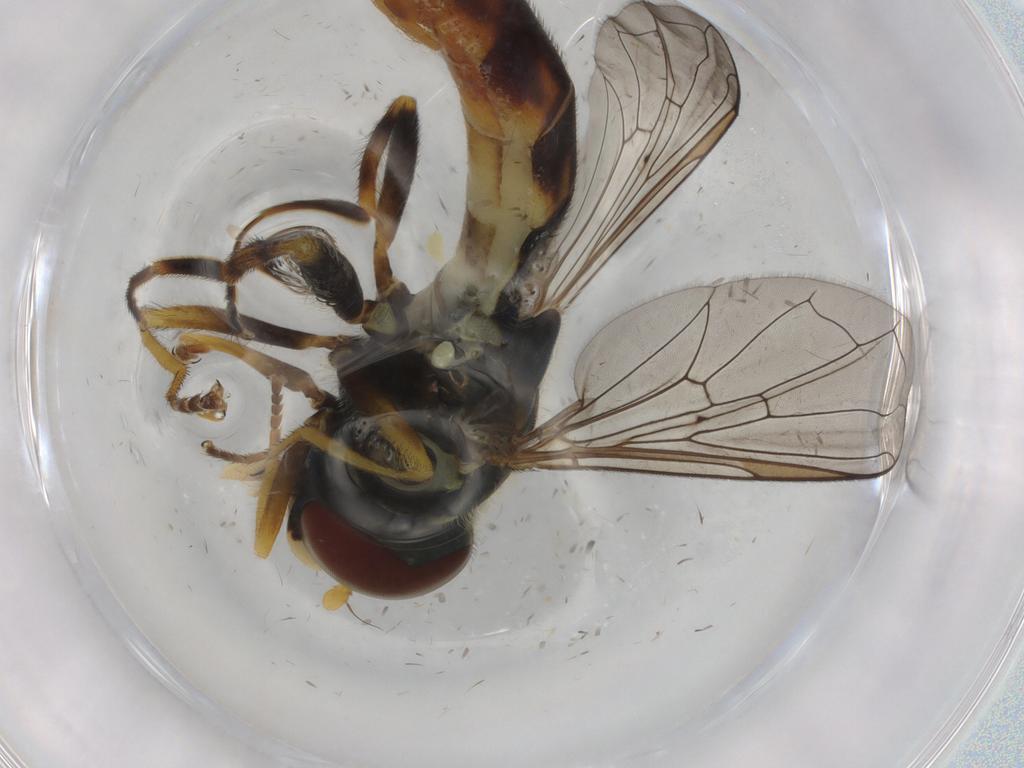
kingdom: Animalia
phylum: Arthropoda
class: Insecta
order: Diptera
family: Syrphidae
